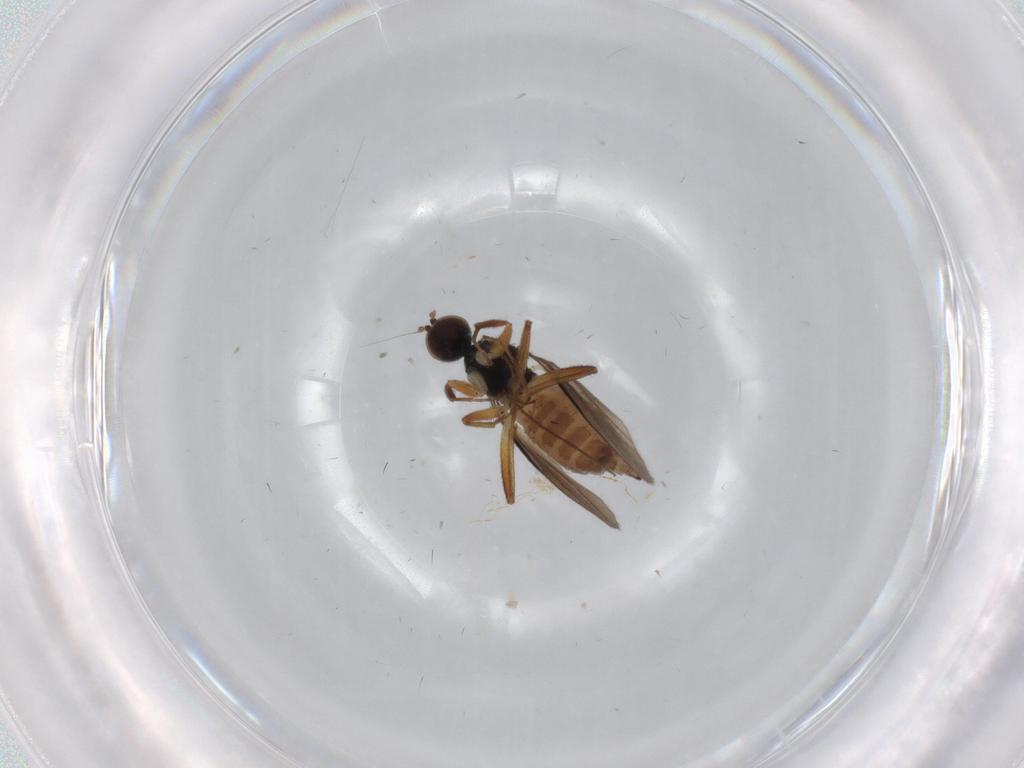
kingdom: Animalia
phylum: Arthropoda
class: Insecta
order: Diptera
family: Hybotidae
